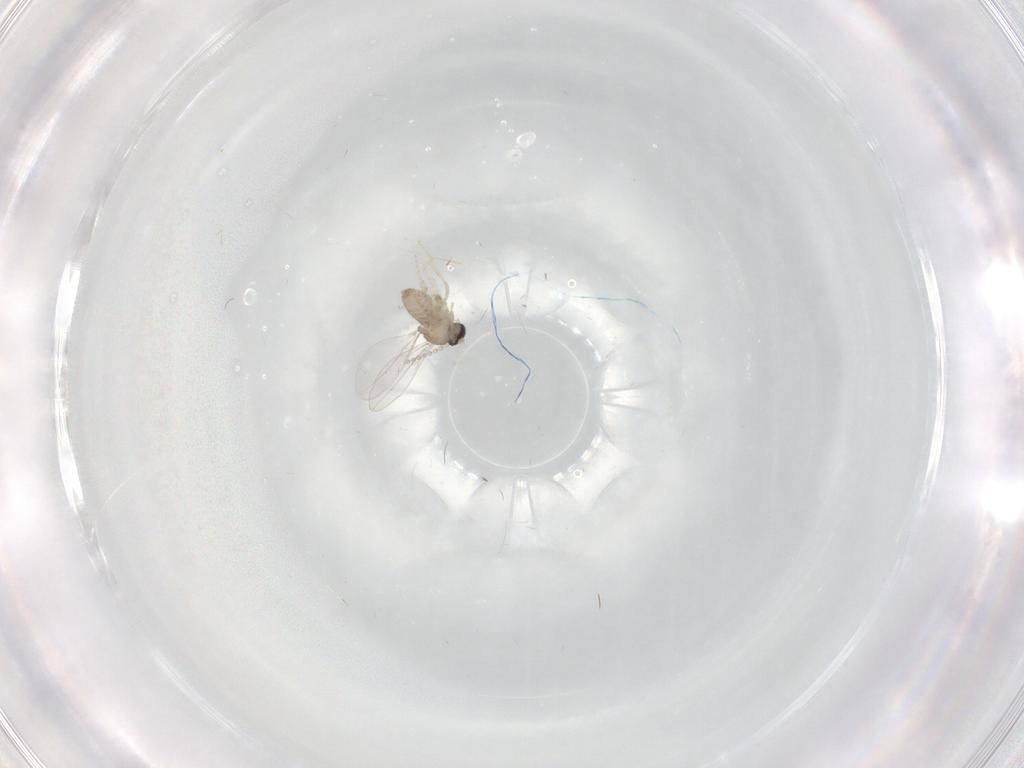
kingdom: Animalia
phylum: Arthropoda
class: Insecta
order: Diptera
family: Cecidomyiidae
